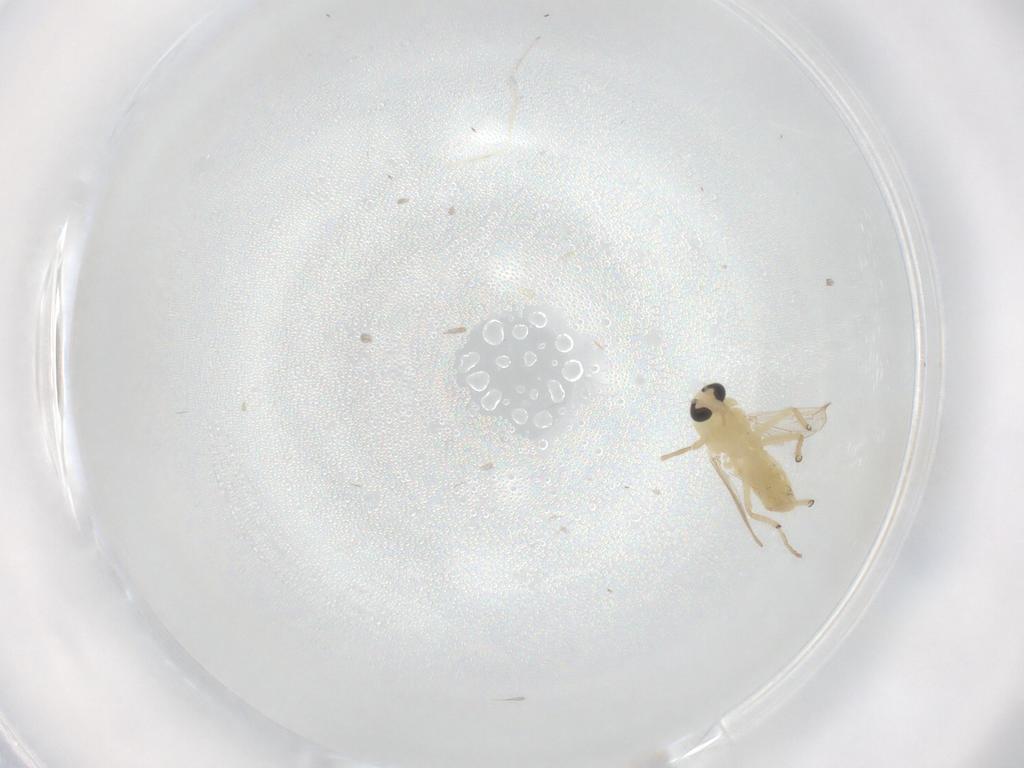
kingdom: Animalia
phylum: Arthropoda
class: Insecta
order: Diptera
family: Chironomidae
